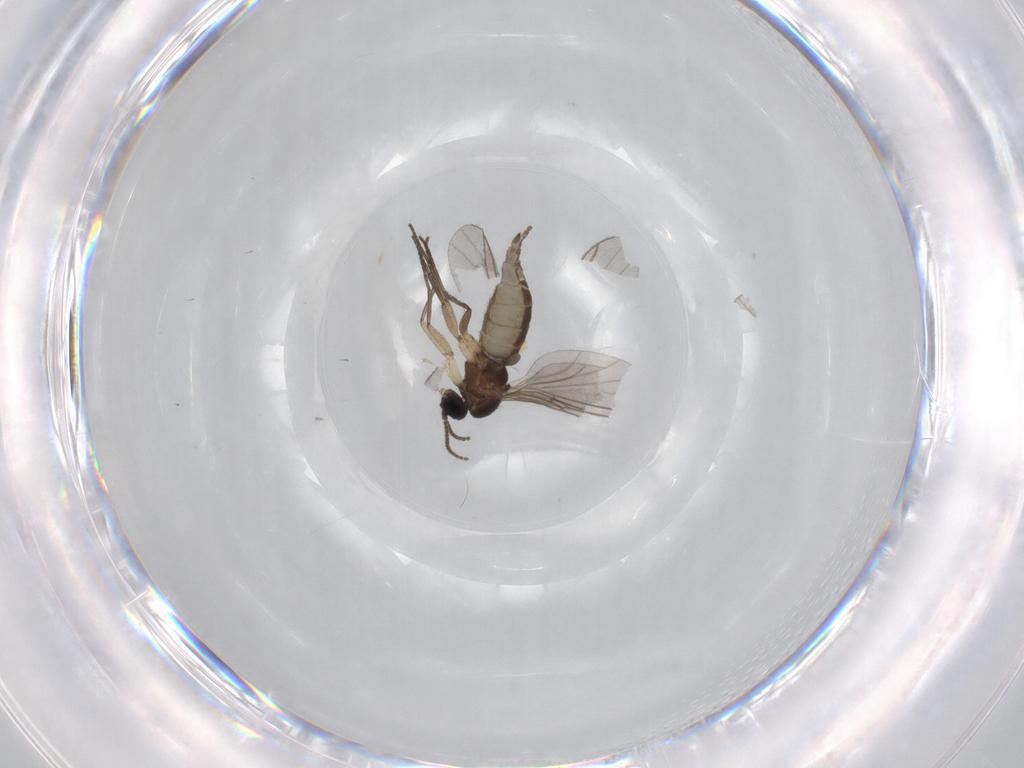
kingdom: Animalia
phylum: Arthropoda
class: Insecta
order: Diptera
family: Sciaridae
